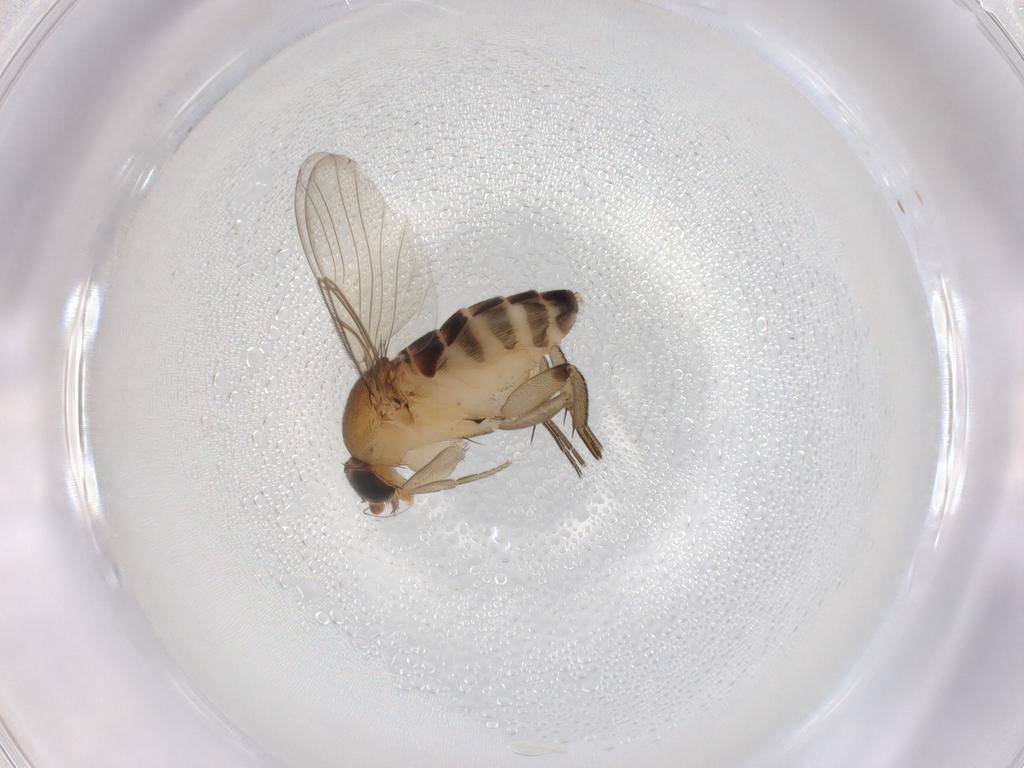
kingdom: Animalia
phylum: Arthropoda
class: Insecta
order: Diptera
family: Phoridae
